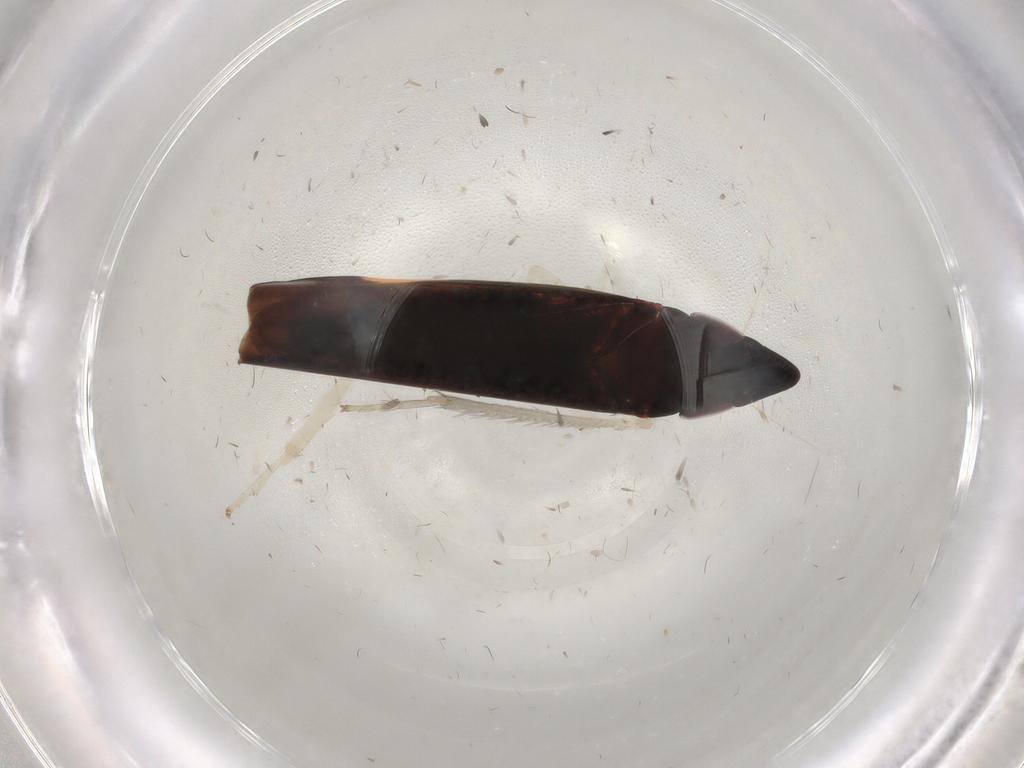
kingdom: Animalia
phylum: Arthropoda
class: Insecta
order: Hemiptera
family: Cicadellidae
